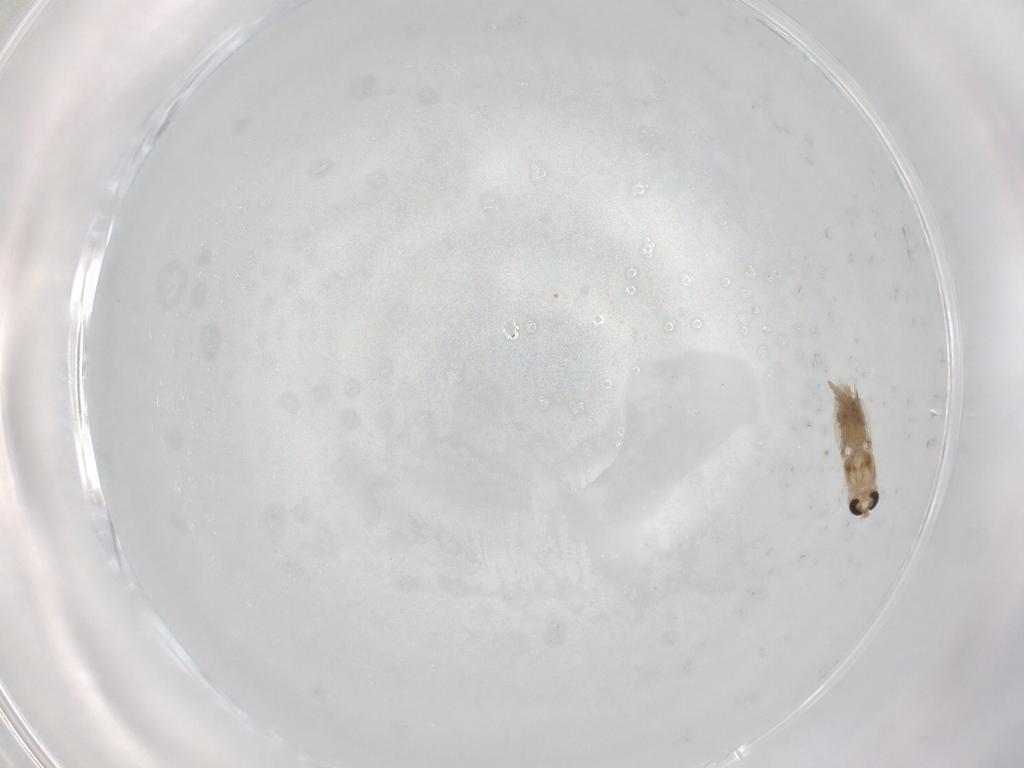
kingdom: Animalia
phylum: Arthropoda
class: Insecta
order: Diptera
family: Chironomidae
